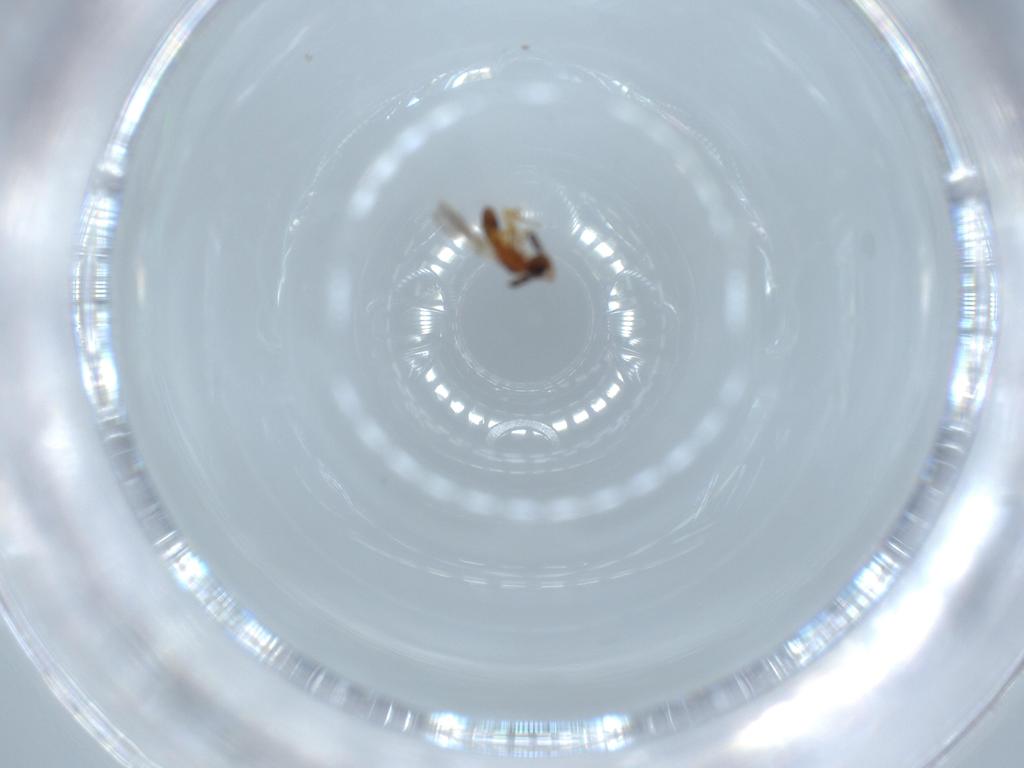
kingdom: Animalia
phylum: Arthropoda
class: Insecta
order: Hymenoptera
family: Diapriidae
